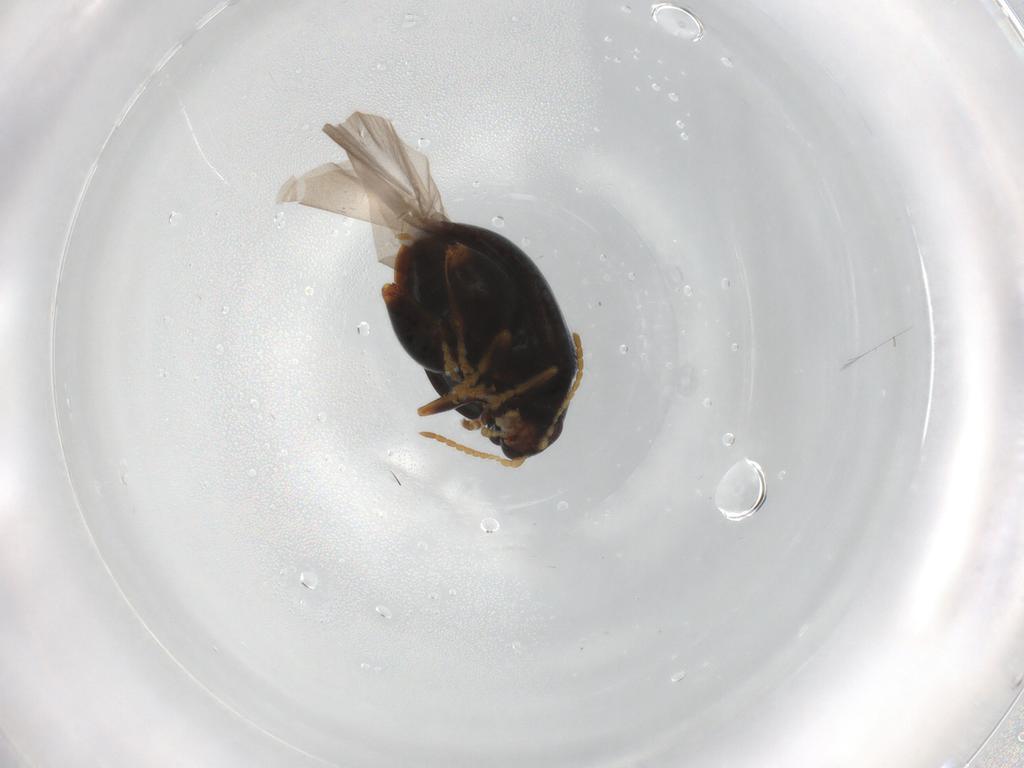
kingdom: Animalia
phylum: Arthropoda
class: Insecta
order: Coleoptera
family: Chrysomelidae
